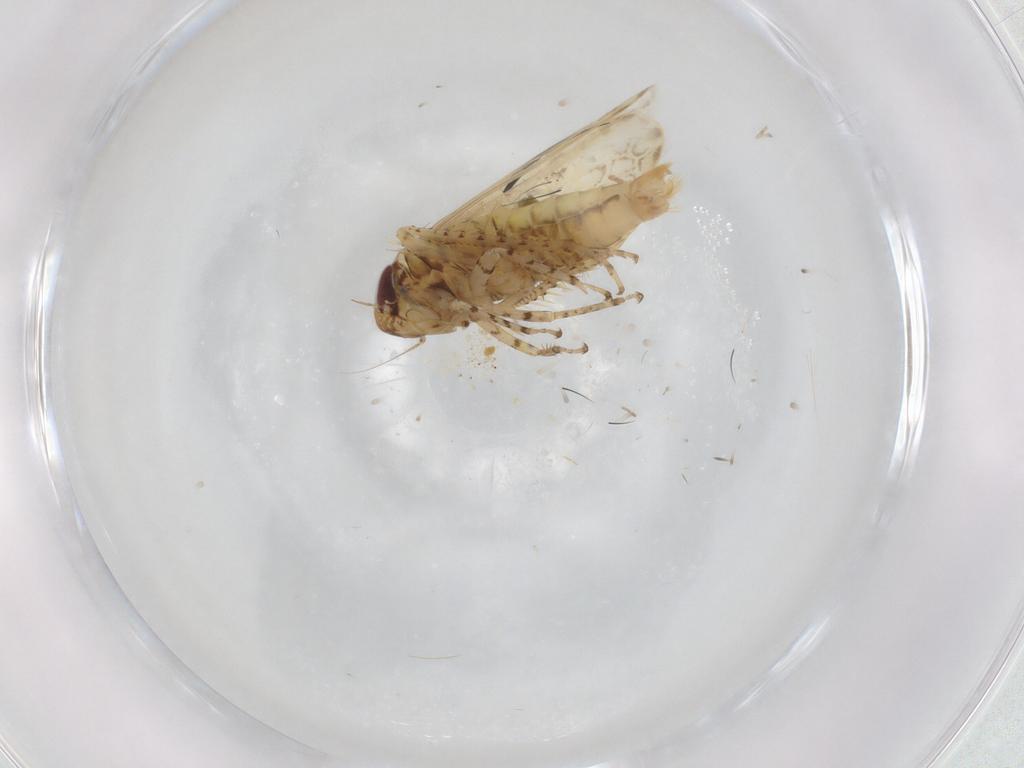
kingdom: Animalia
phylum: Arthropoda
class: Insecta
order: Hemiptera
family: Cicadellidae
